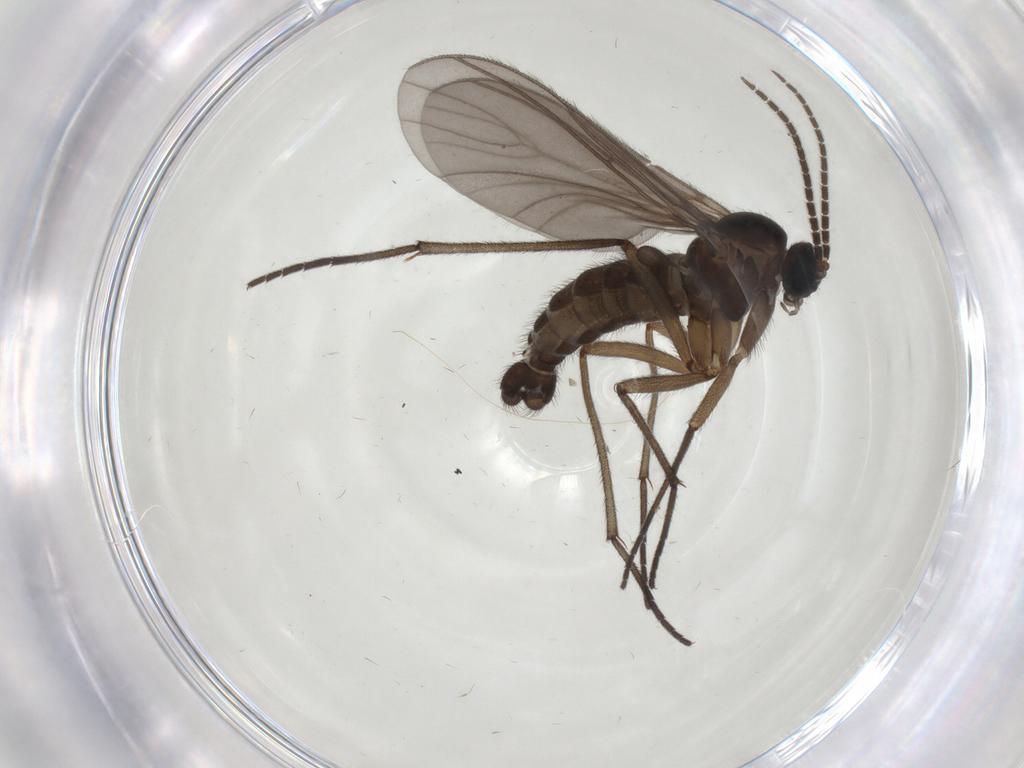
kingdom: Animalia
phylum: Arthropoda
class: Insecta
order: Diptera
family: Sciaridae
